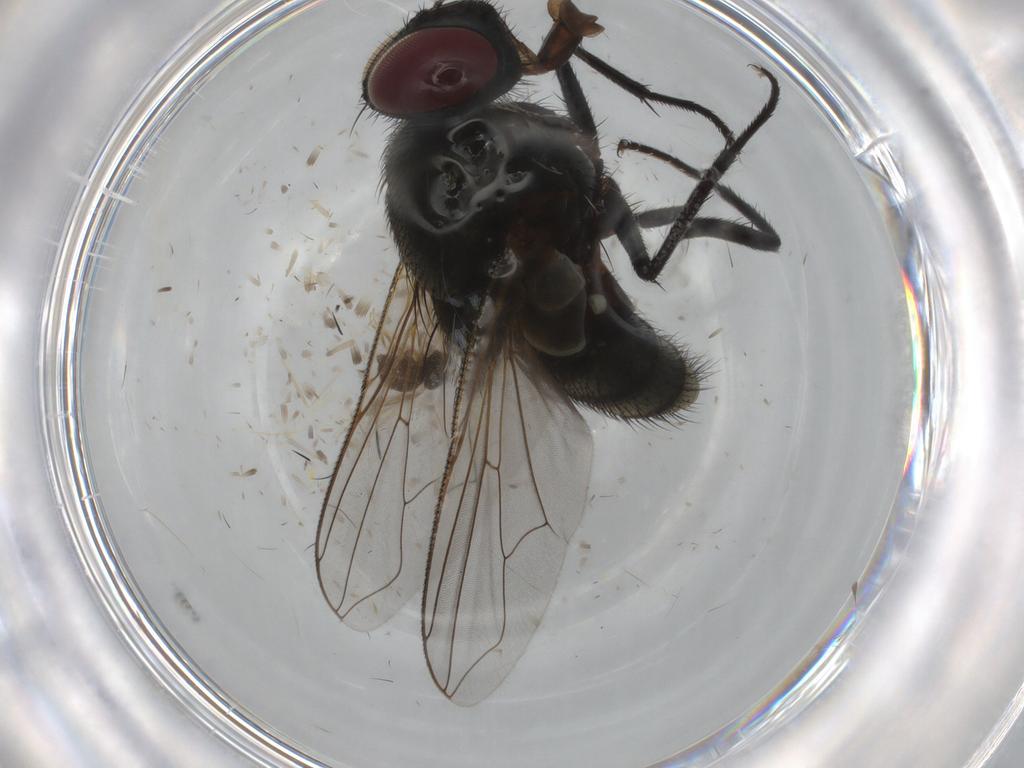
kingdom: Animalia
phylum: Arthropoda
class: Insecta
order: Diptera
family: Muscidae
